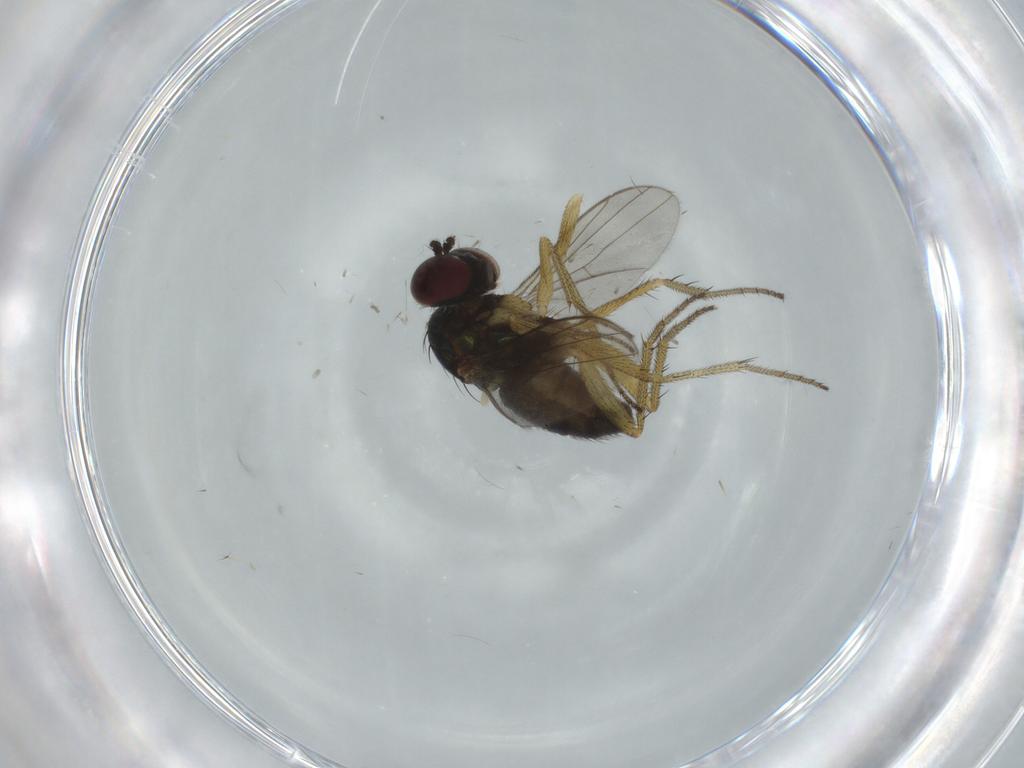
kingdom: Animalia
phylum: Arthropoda
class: Insecta
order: Diptera
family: Dolichopodidae
